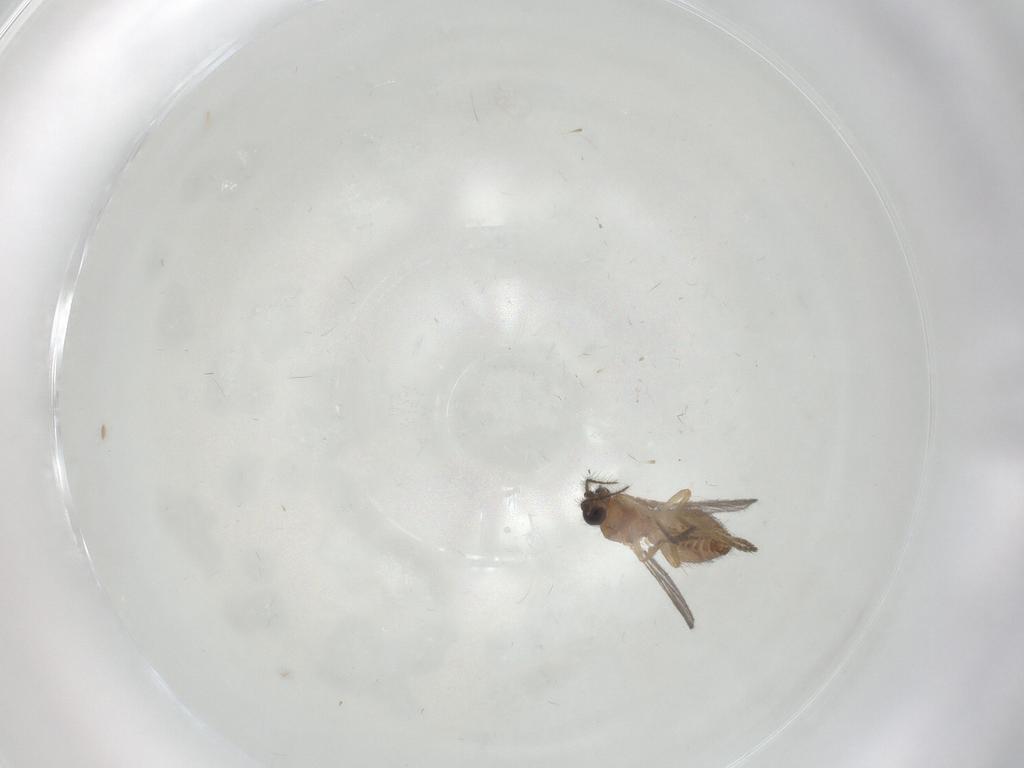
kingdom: Animalia
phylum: Arthropoda
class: Insecta
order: Diptera
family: Ceratopogonidae
